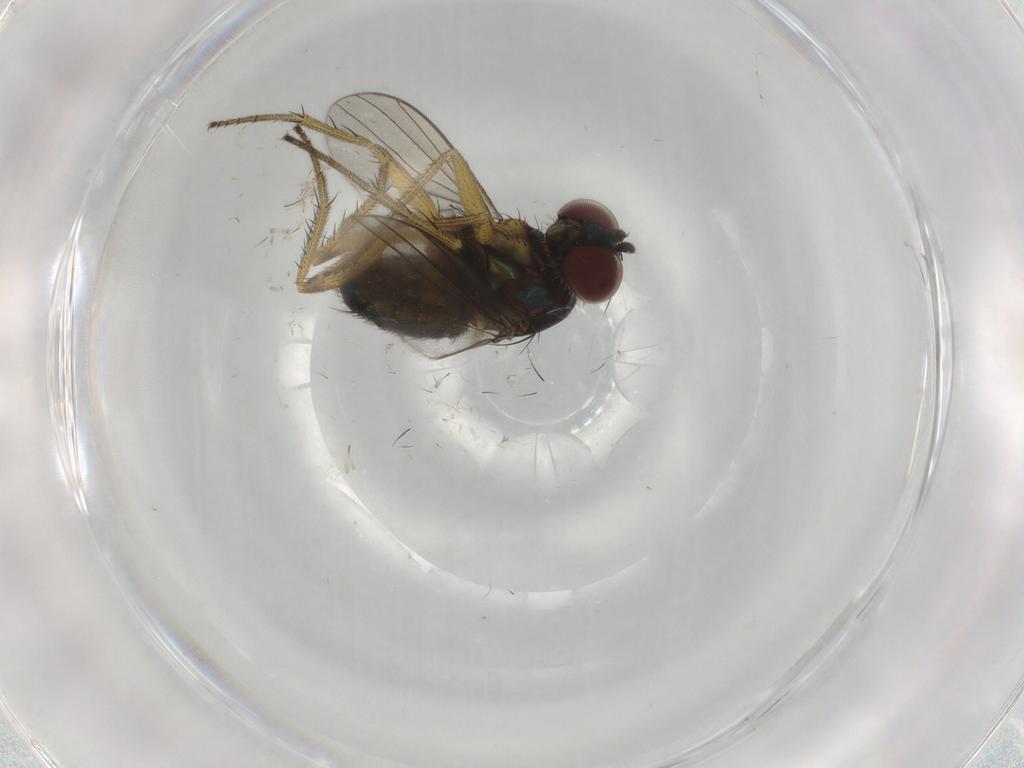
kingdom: Animalia
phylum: Arthropoda
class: Insecta
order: Diptera
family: Dolichopodidae
